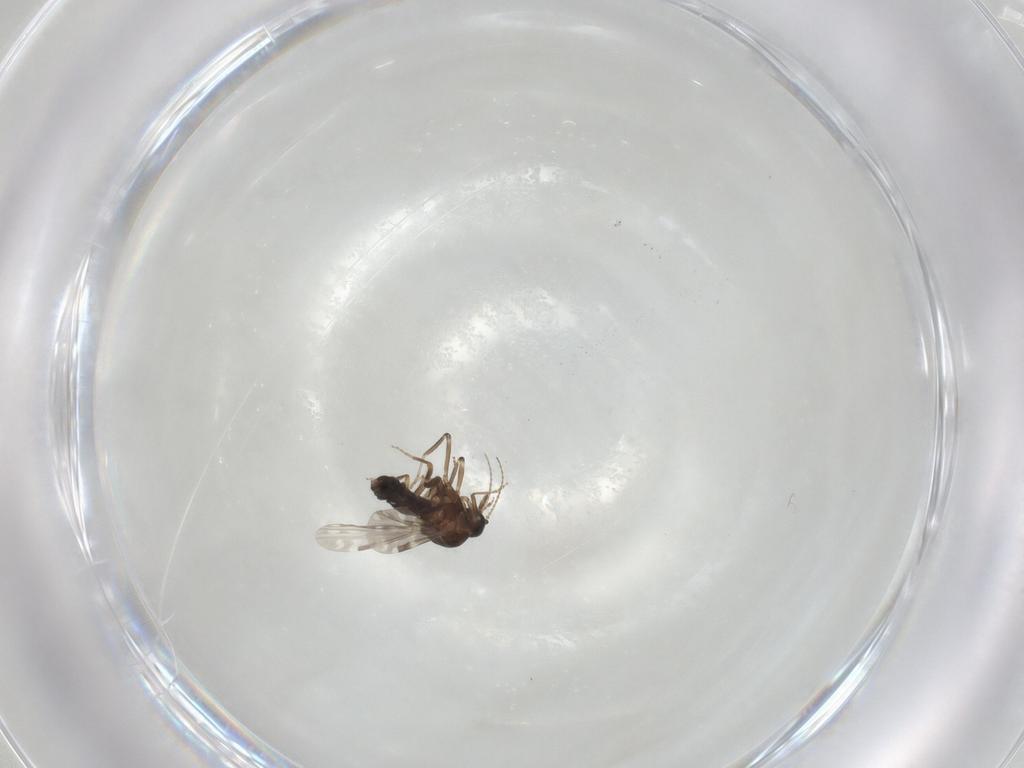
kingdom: Animalia
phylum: Arthropoda
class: Insecta
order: Diptera
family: Ceratopogonidae
